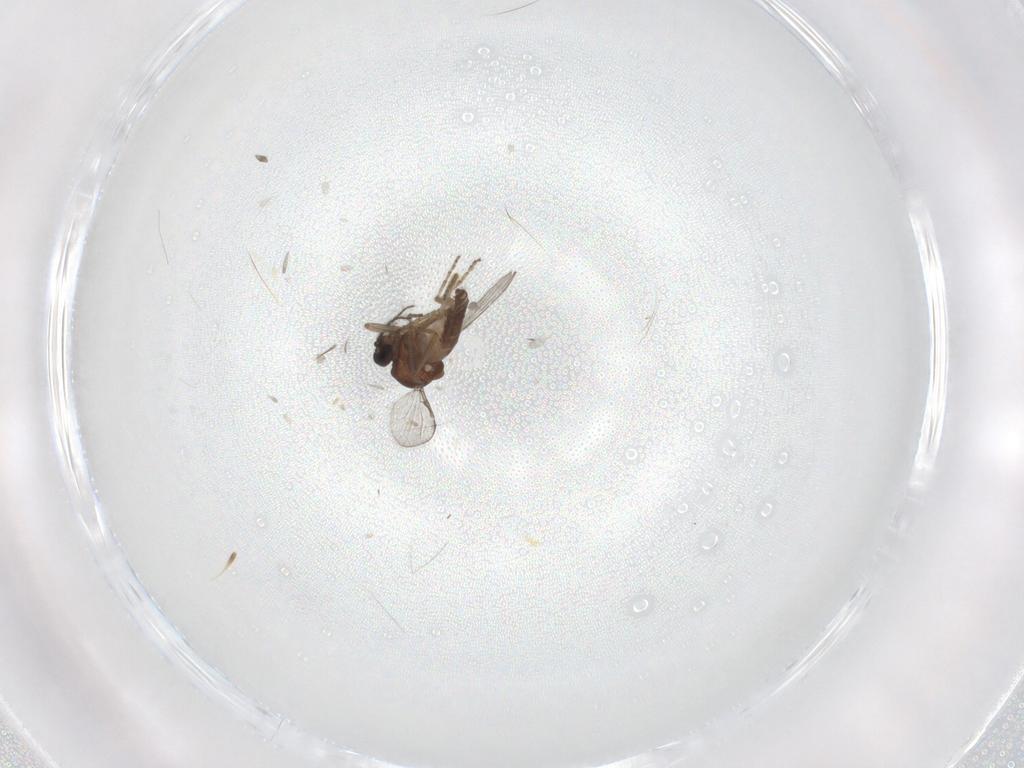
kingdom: Animalia
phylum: Arthropoda
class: Insecta
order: Diptera
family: Ceratopogonidae
